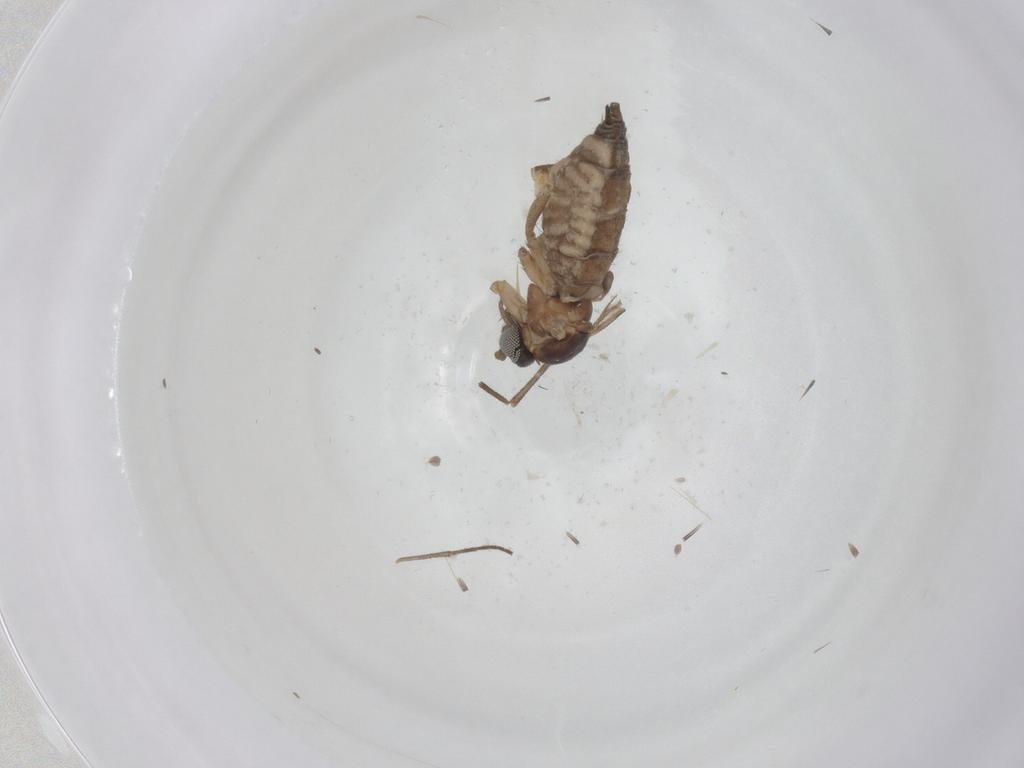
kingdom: Animalia
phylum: Arthropoda
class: Insecta
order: Diptera
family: Sciaridae
